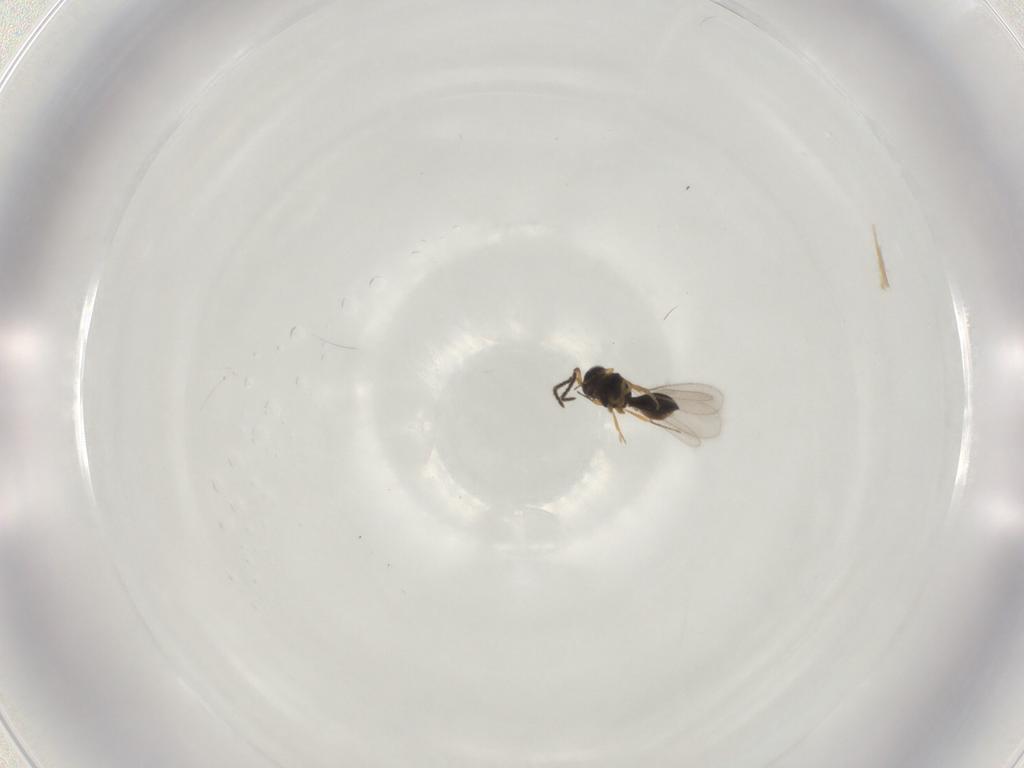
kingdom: Animalia
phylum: Arthropoda
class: Insecta
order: Hymenoptera
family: Scelionidae
